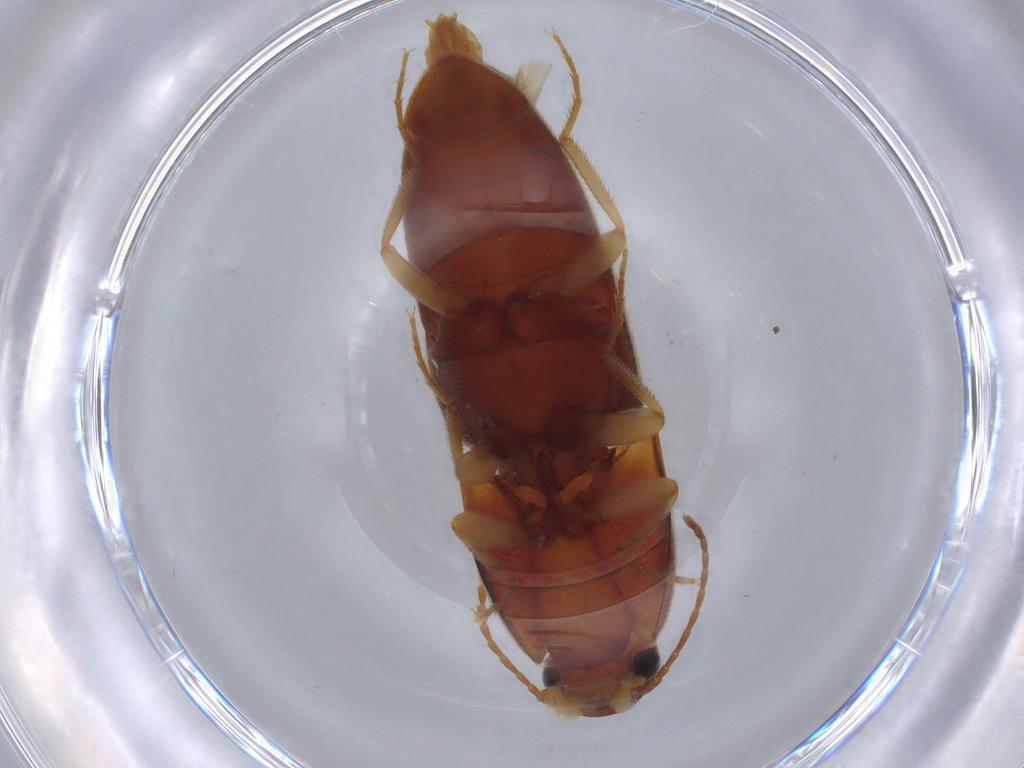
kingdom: Animalia
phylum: Arthropoda
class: Insecta
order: Coleoptera
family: Elateridae
